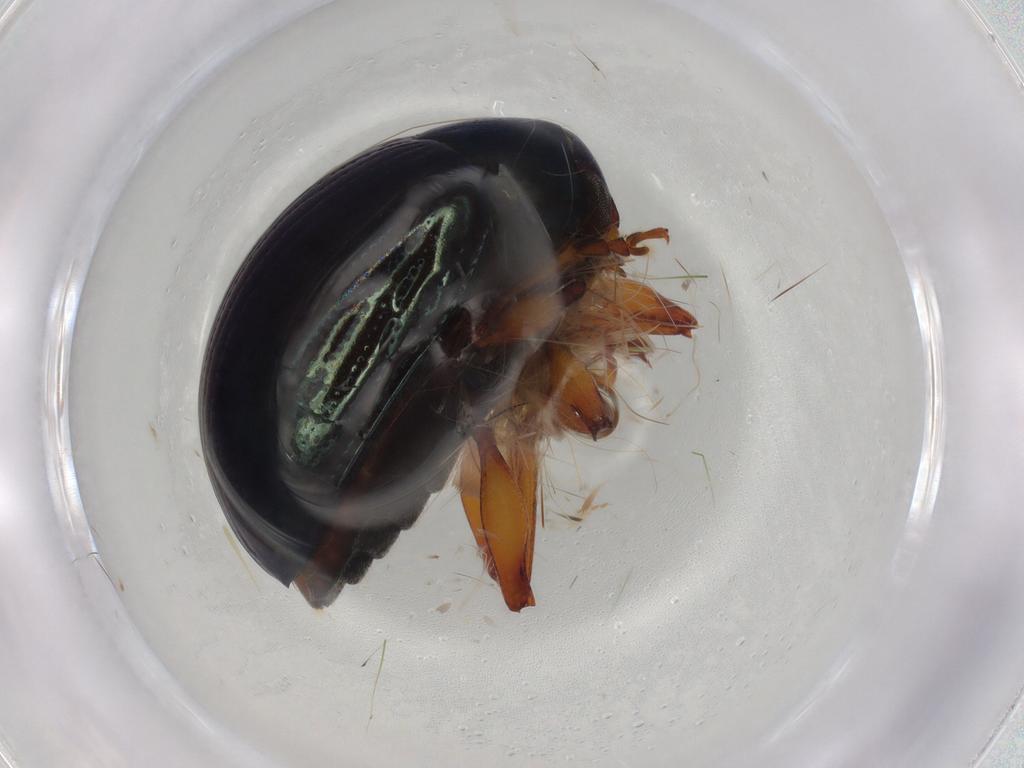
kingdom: Animalia
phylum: Arthropoda
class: Insecta
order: Coleoptera
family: Chrysomelidae
